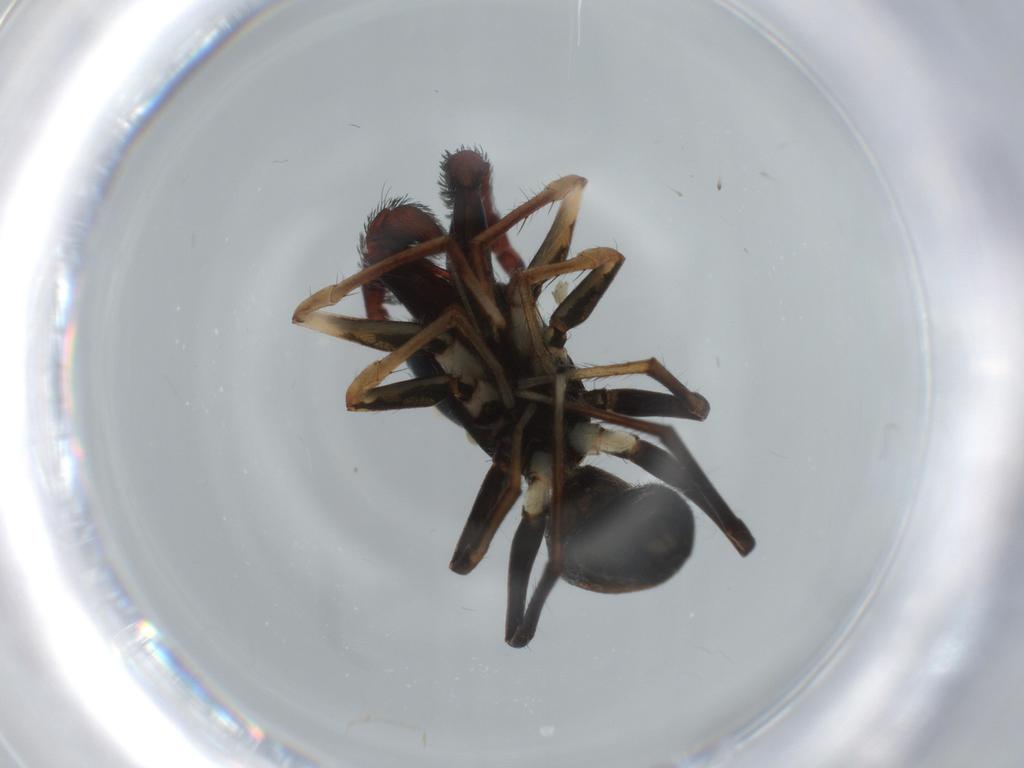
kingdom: Animalia
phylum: Arthropoda
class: Arachnida
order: Araneae
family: Salticidae
